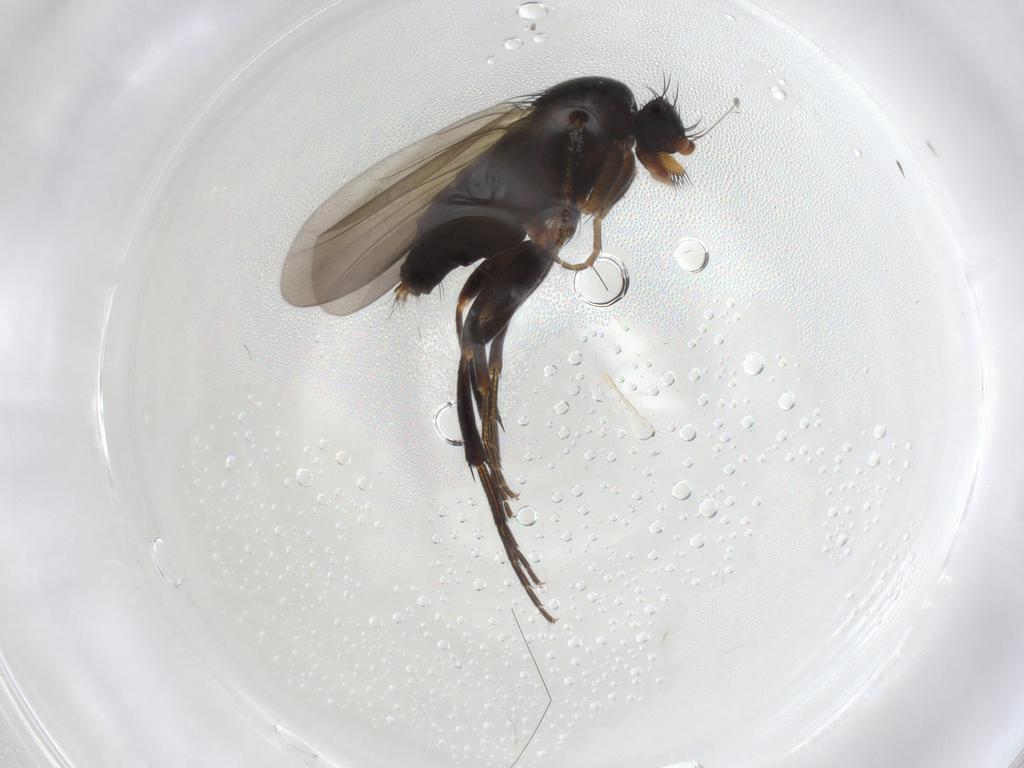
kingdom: Animalia
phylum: Arthropoda
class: Insecta
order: Diptera
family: Phoridae
